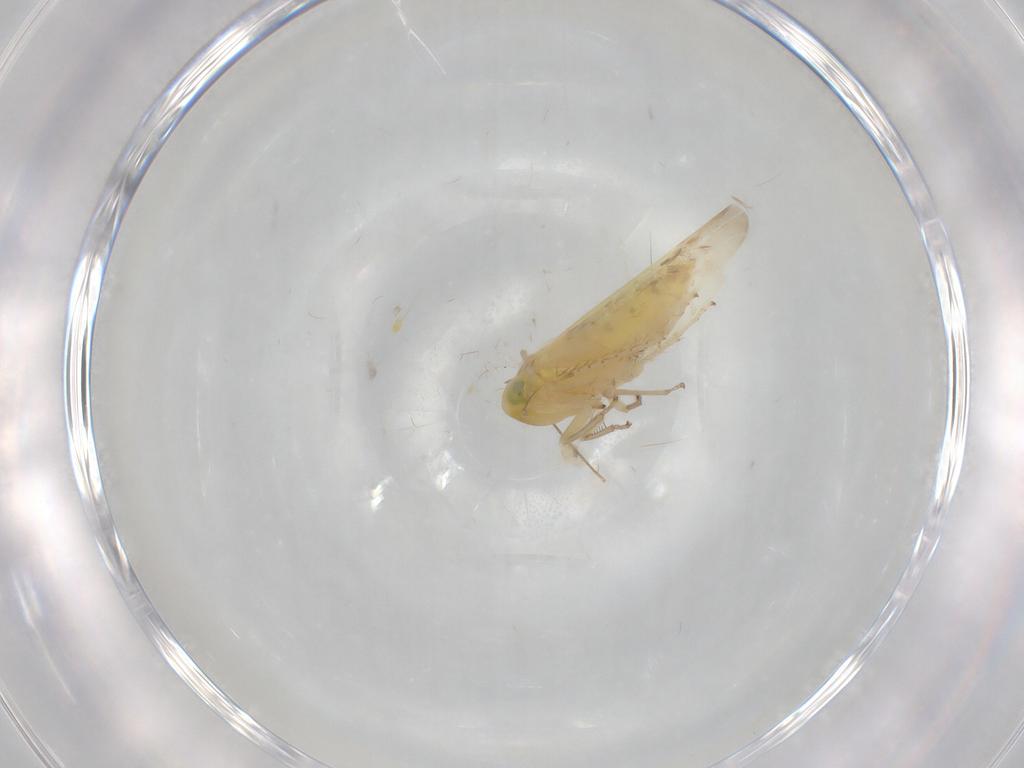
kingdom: Animalia
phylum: Arthropoda
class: Insecta
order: Hemiptera
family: Cicadellidae
